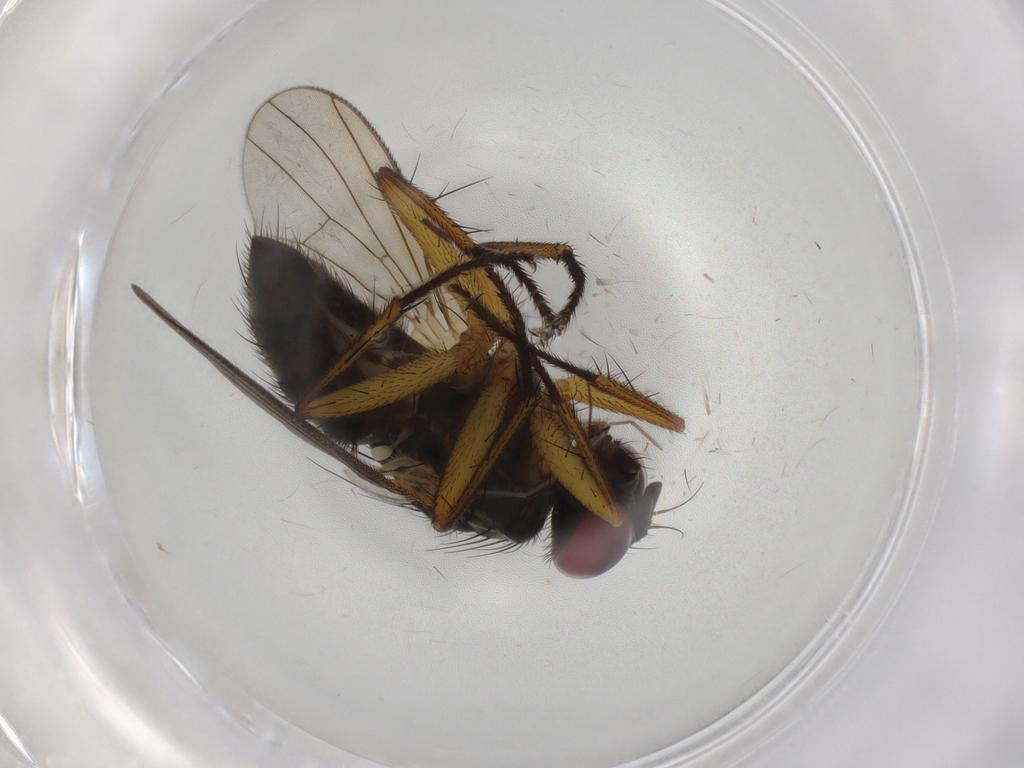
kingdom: Animalia
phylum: Arthropoda
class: Insecta
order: Diptera
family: Muscidae
